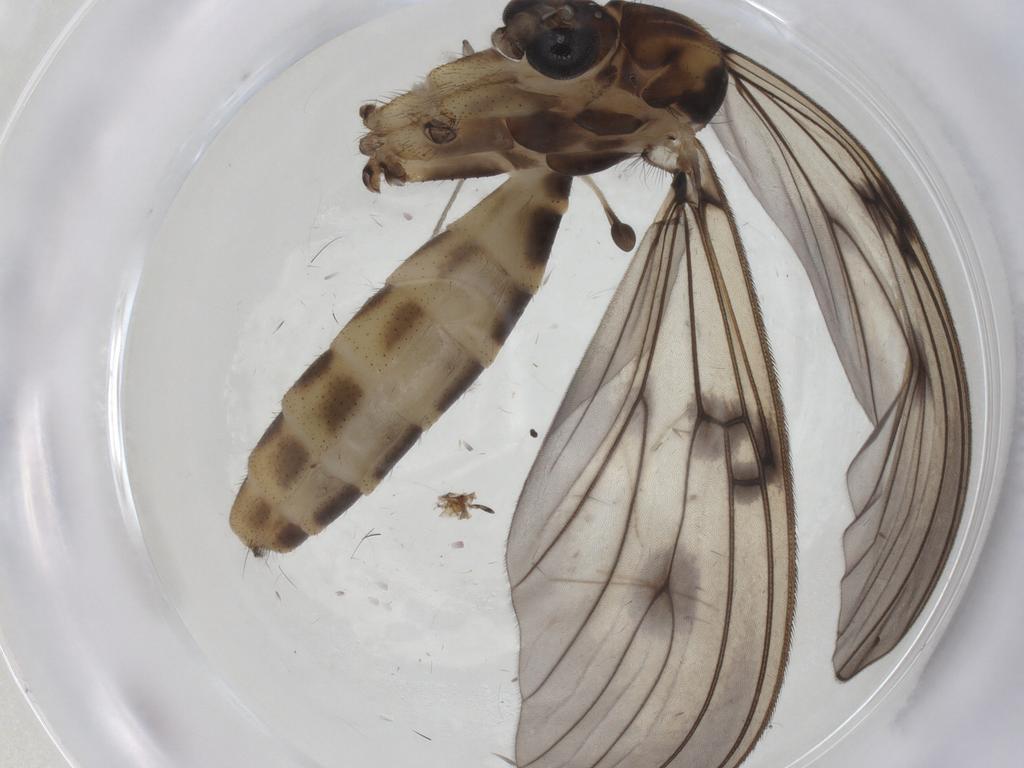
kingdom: Animalia
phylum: Arthropoda
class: Insecta
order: Diptera
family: Mycetophilidae
